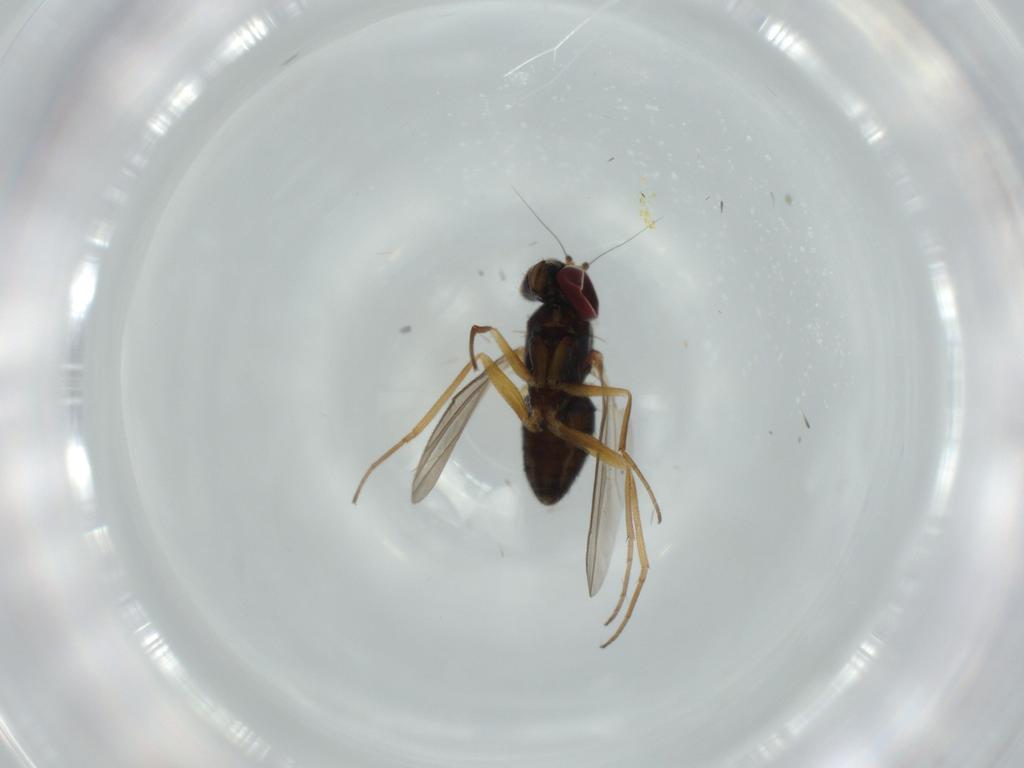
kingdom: Animalia
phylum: Arthropoda
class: Insecta
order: Diptera
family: Dolichopodidae
